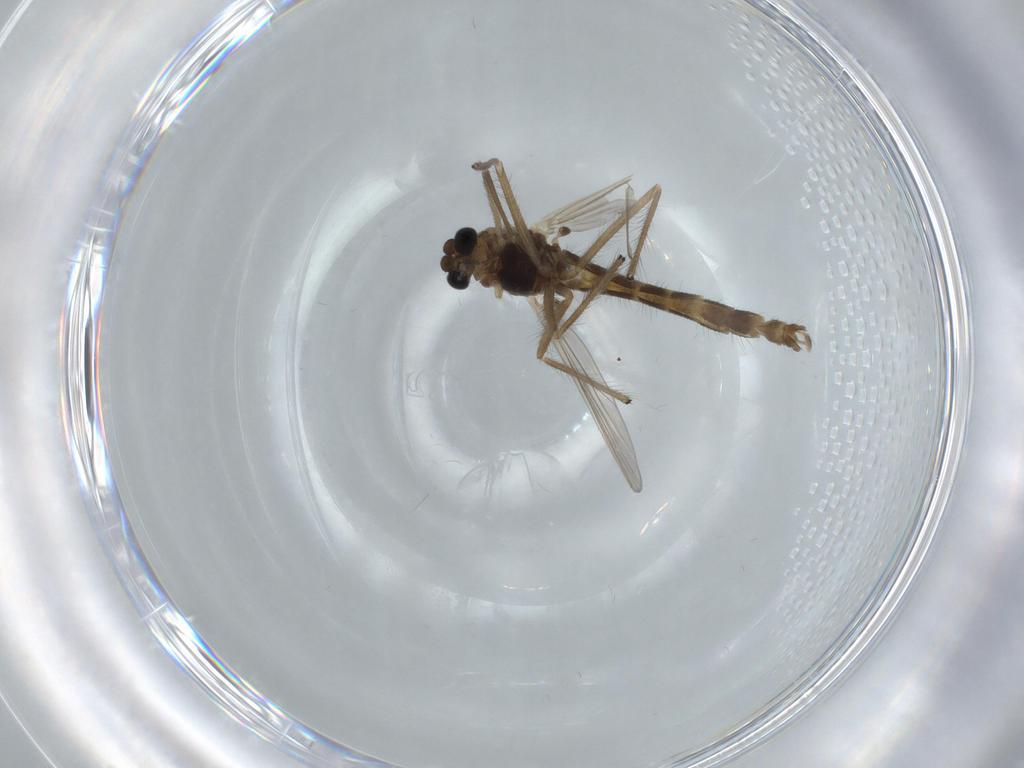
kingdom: Animalia
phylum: Arthropoda
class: Insecta
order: Diptera
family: Chironomidae
